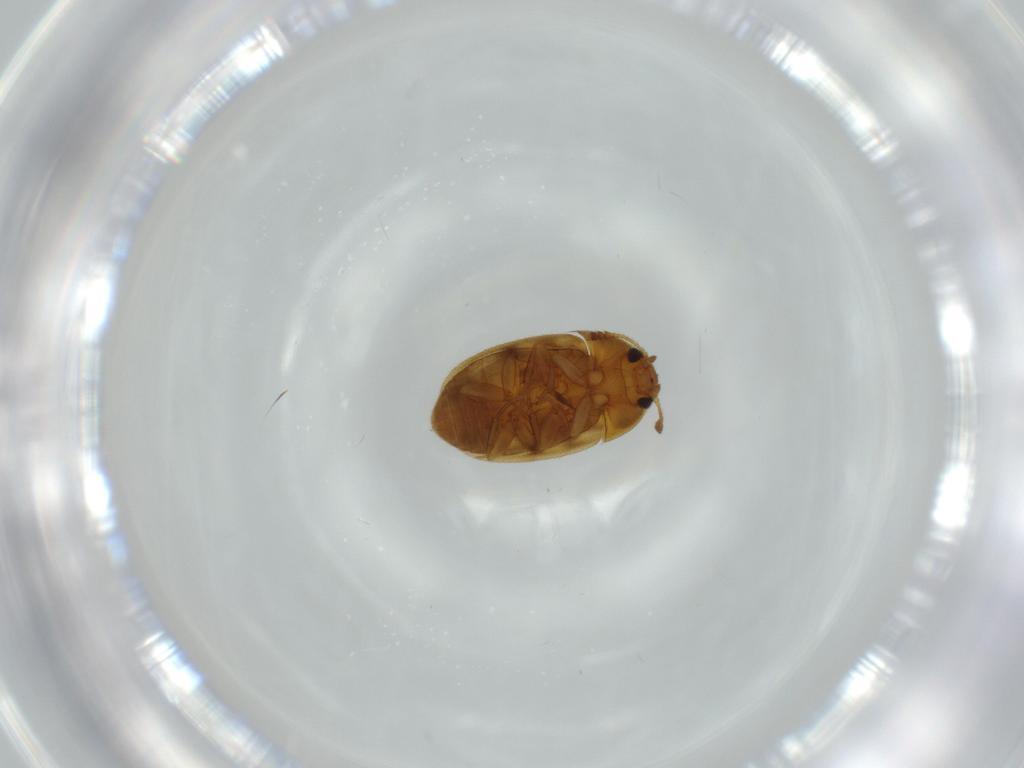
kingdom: Animalia
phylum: Arthropoda
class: Insecta
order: Coleoptera
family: Mycetophagidae
